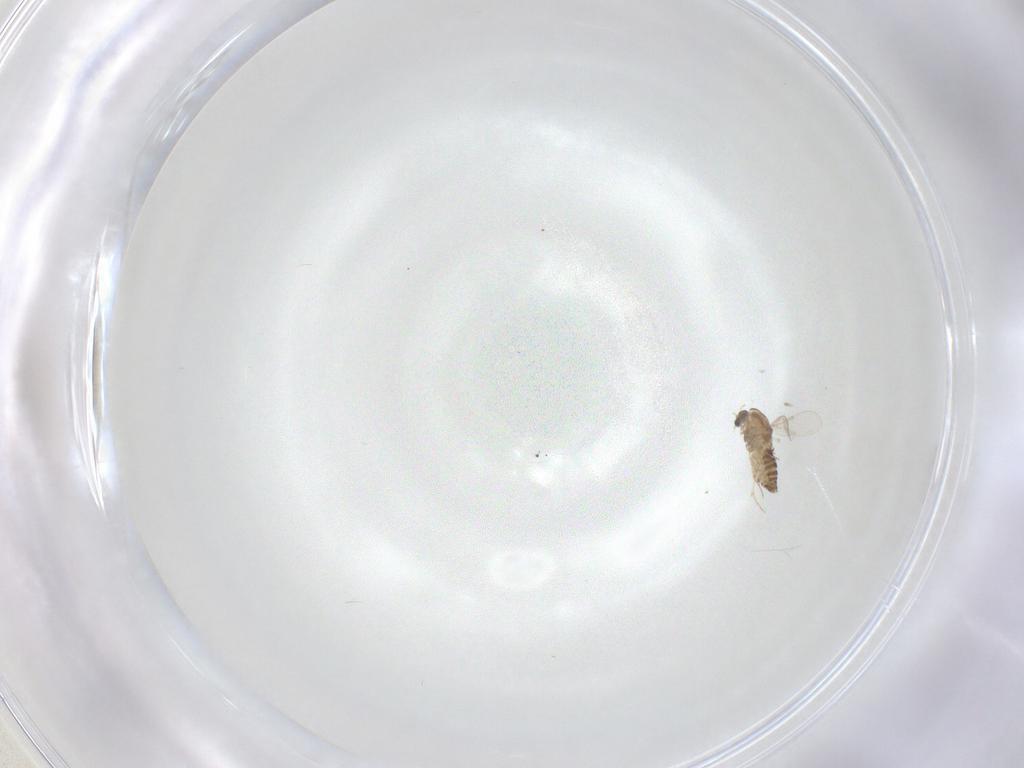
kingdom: Animalia
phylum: Arthropoda
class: Insecta
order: Diptera
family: Chironomidae
